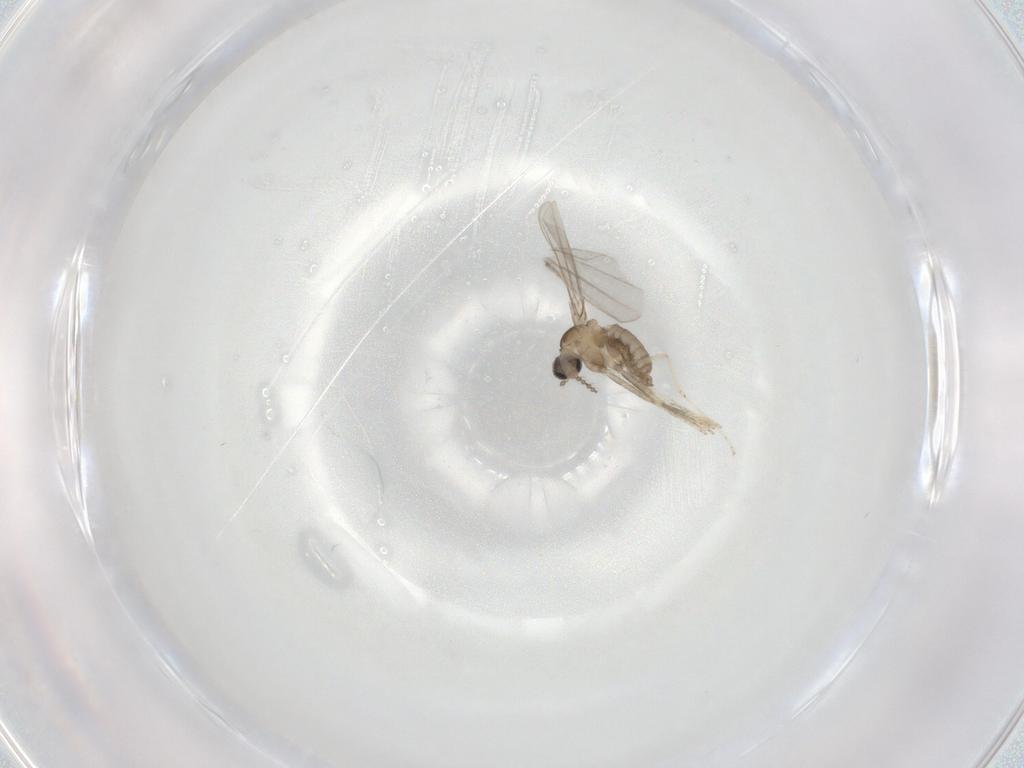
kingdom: Animalia
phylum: Arthropoda
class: Insecta
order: Diptera
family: Cecidomyiidae
